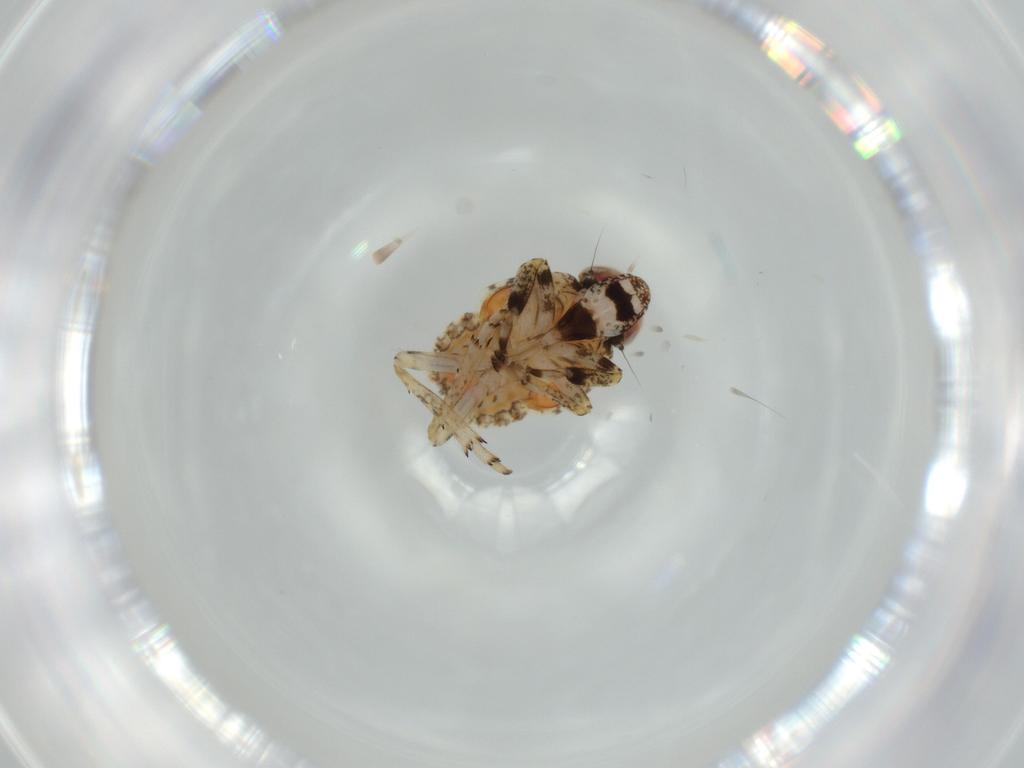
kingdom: Animalia
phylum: Arthropoda
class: Insecta
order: Hemiptera
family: Issidae
